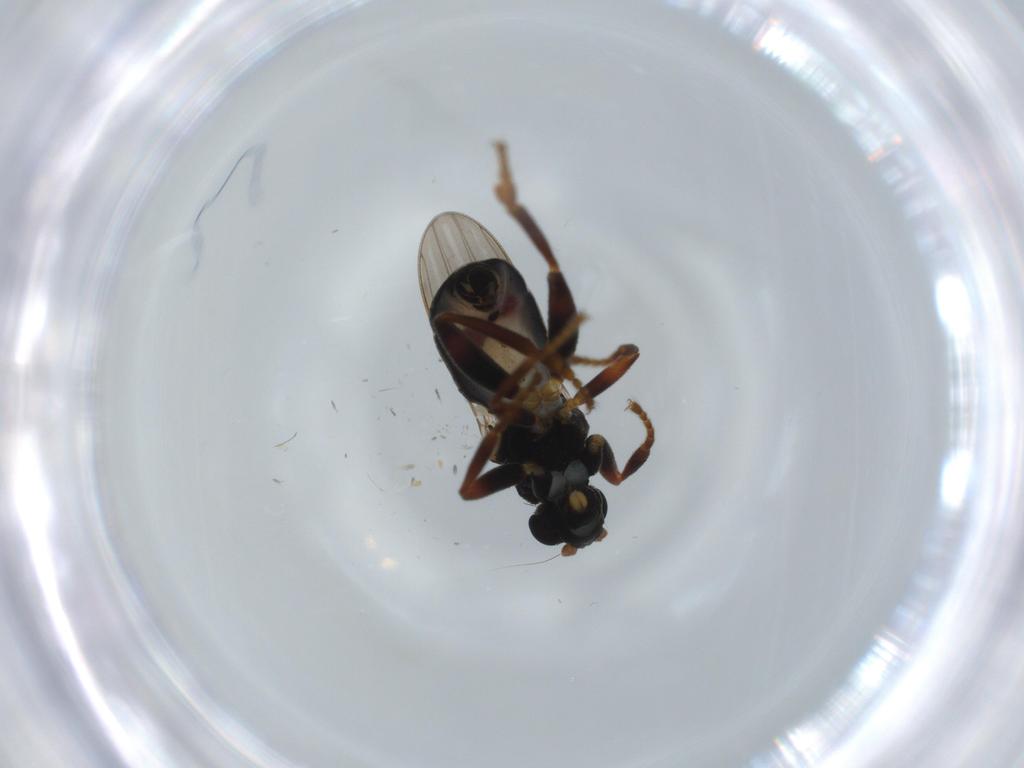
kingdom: Animalia
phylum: Arthropoda
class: Insecta
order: Diptera
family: Sphaeroceridae
